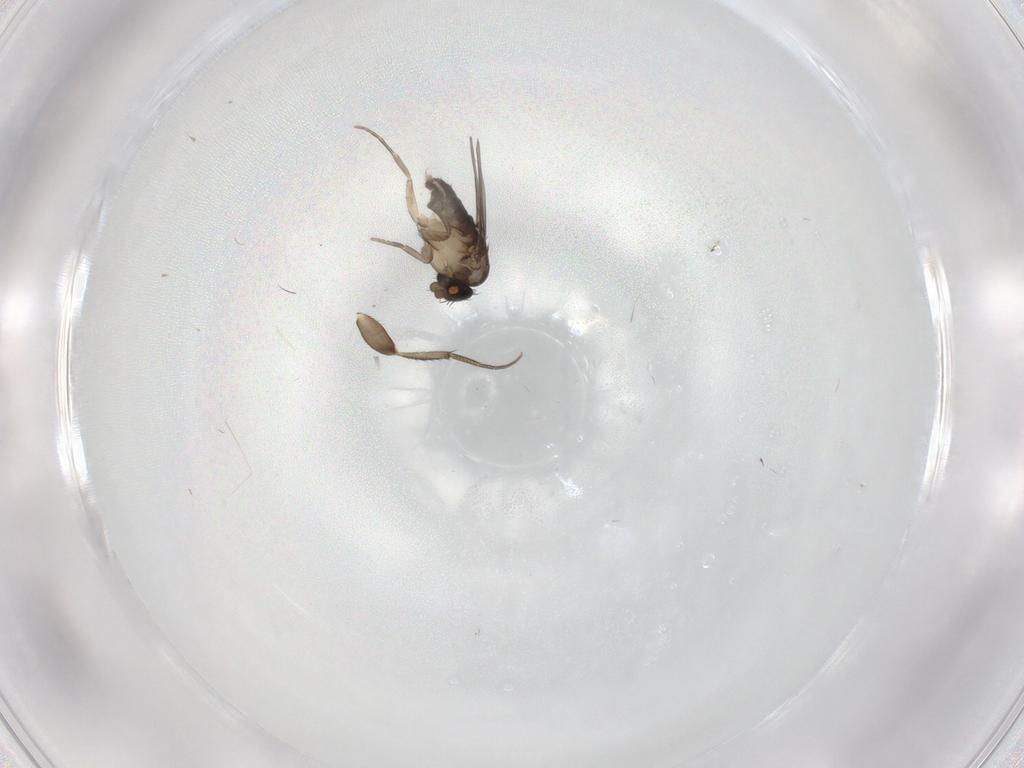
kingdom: Animalia
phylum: Arthropoda
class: Insecta
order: Diptera
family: Phoridae
